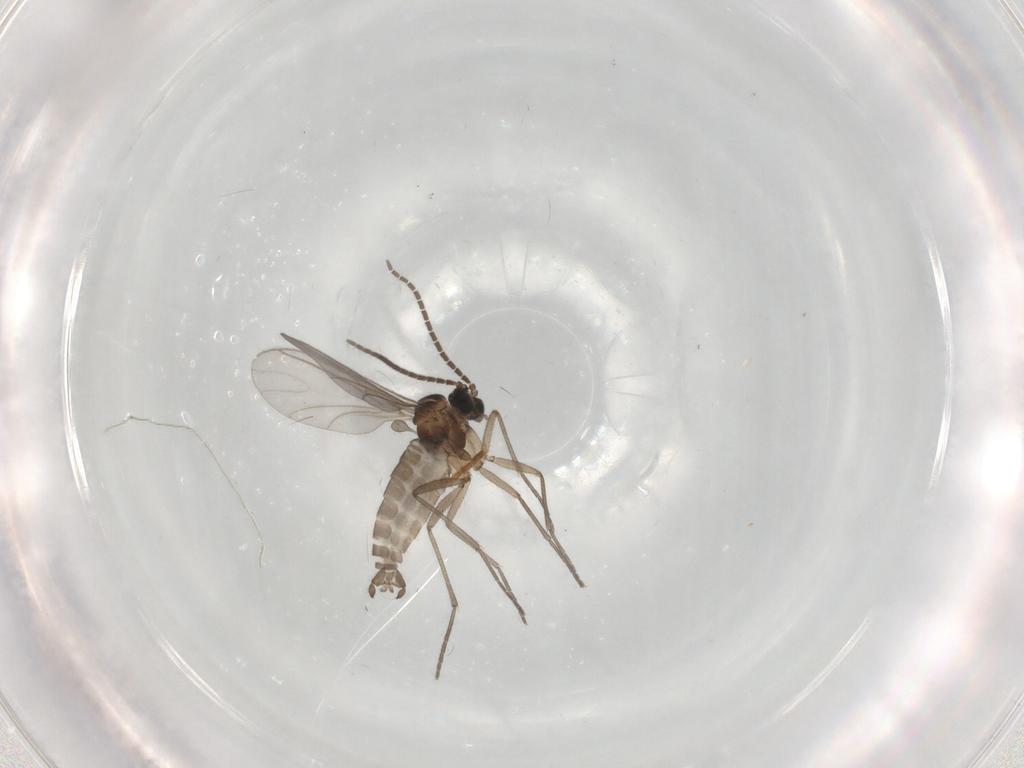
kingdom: Animalia
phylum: Arthropoda
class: Insecta
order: Diptera
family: Sciaridae
